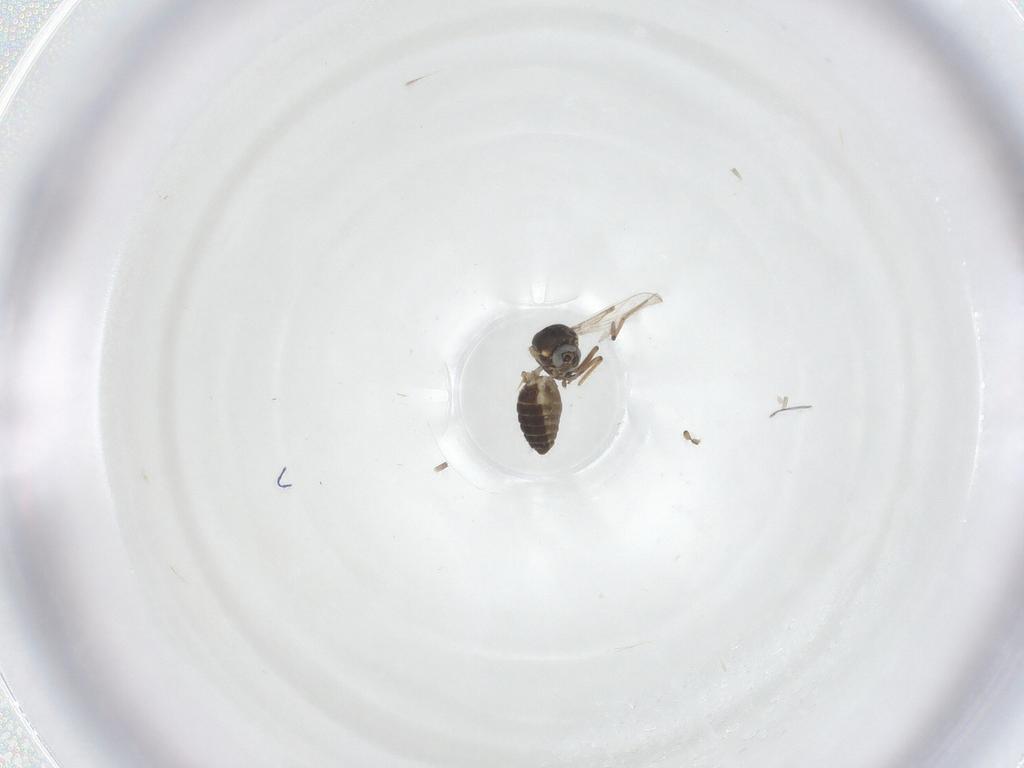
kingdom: Animalia
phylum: Arthropoda
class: Insecta
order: Diptera
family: Ceratopogonidae
